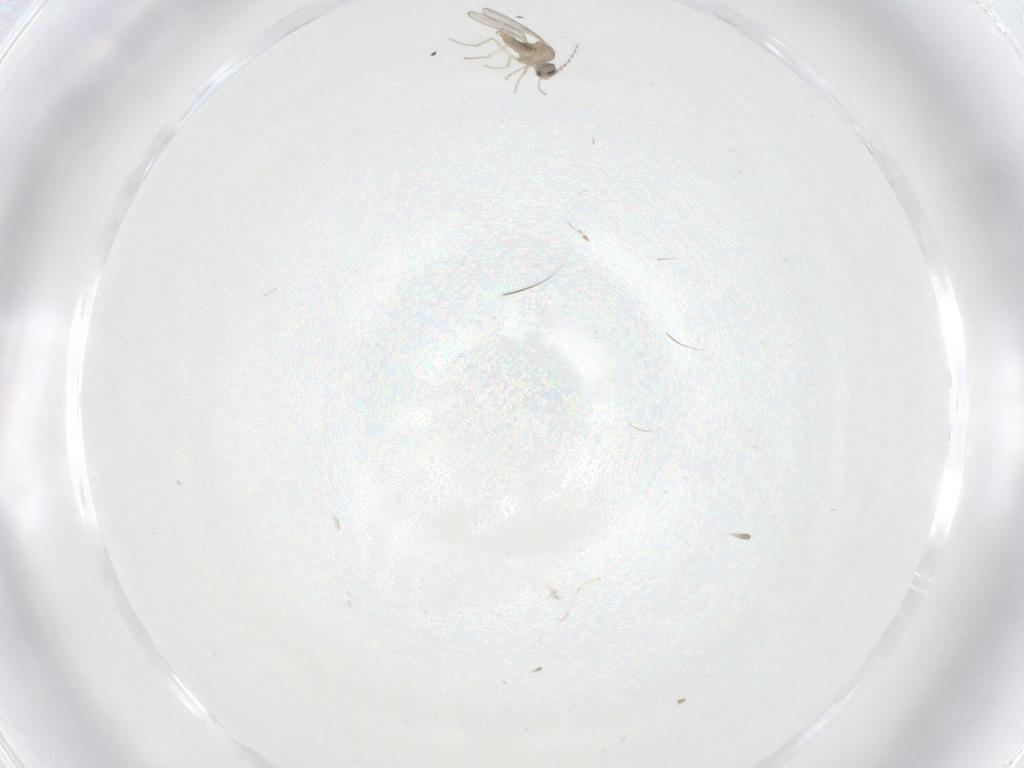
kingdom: Animalia
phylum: Arthropoda
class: Insecta
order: Diptera
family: Cecidomyiidae
